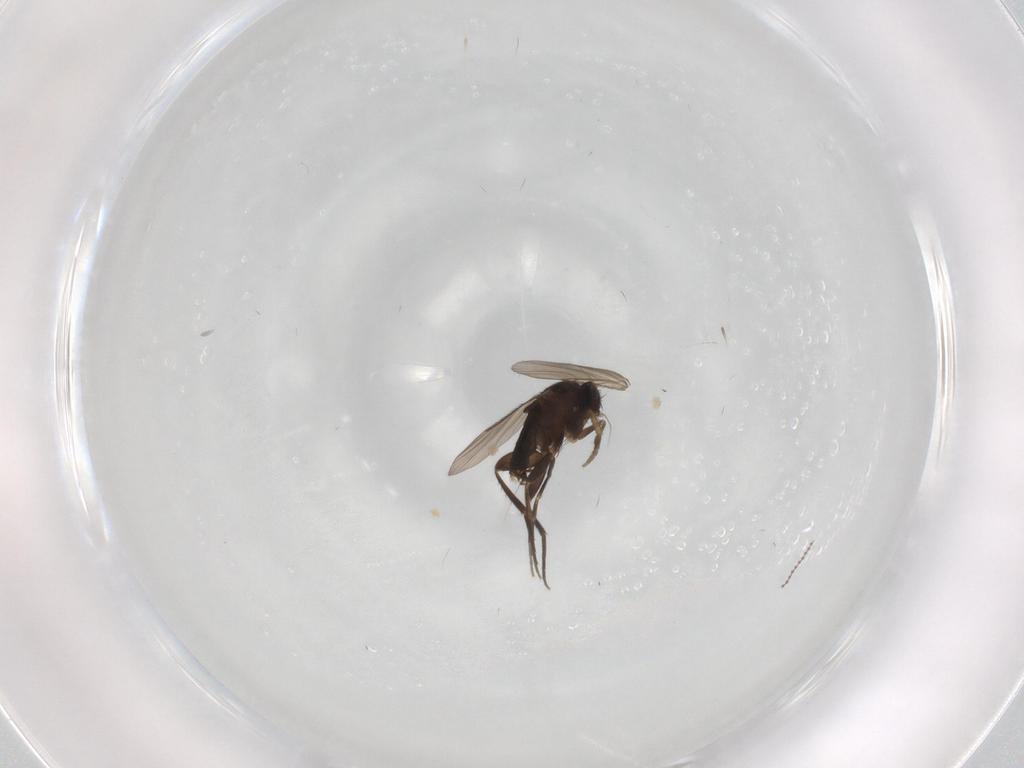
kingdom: Animalia
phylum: Arthropoda
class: Insecta
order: Diptera
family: Phoridae
